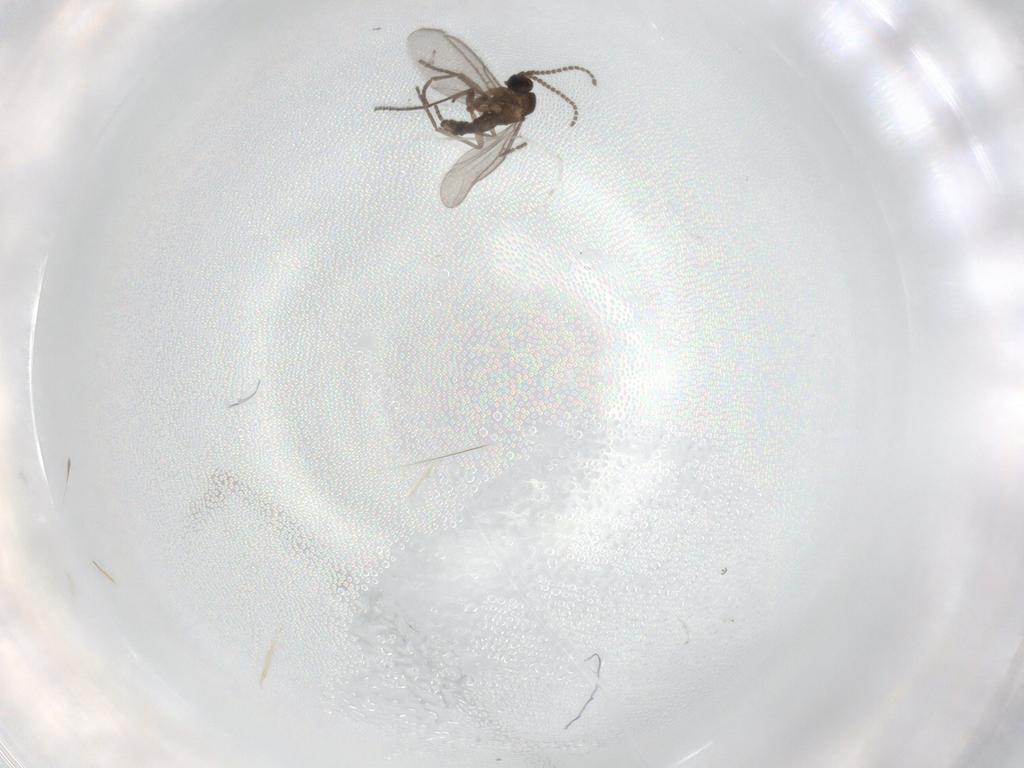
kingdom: Animalia
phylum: Arthropoda
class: Insecta
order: Diptera
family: Cecidomyiidae
